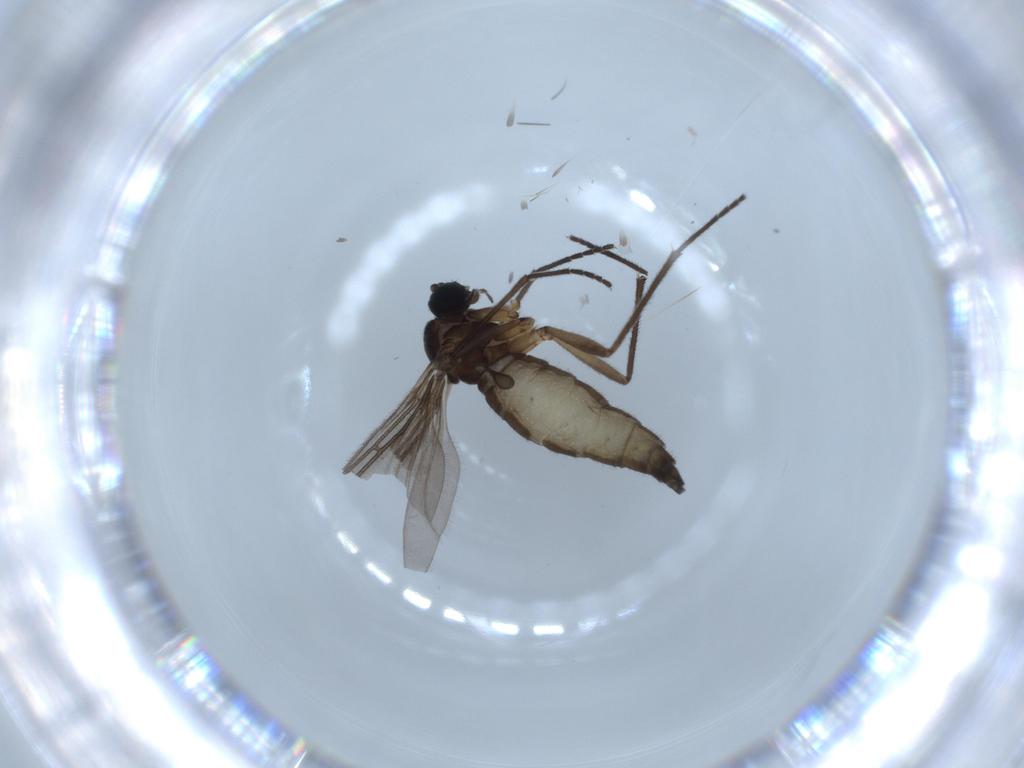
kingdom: Animalia
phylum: Arthropoda
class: Insecta
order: Diptera
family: Sciaridae
